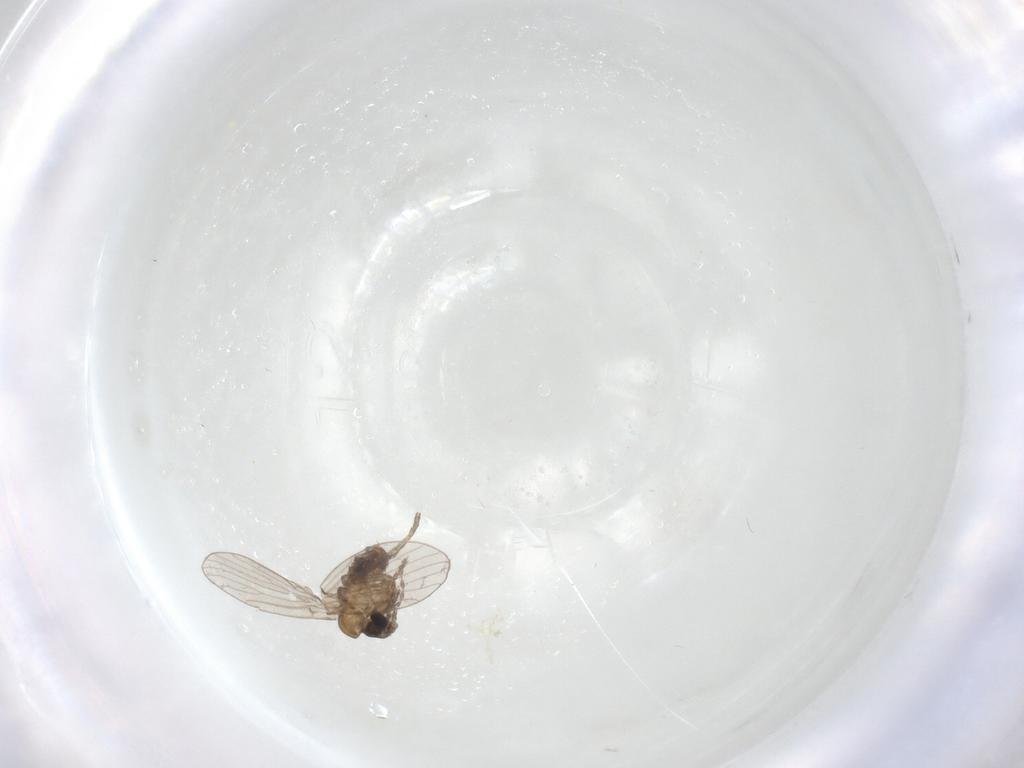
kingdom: Animalia
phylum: Arthropoda
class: Insecta
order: Diptera
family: Psychodidae
